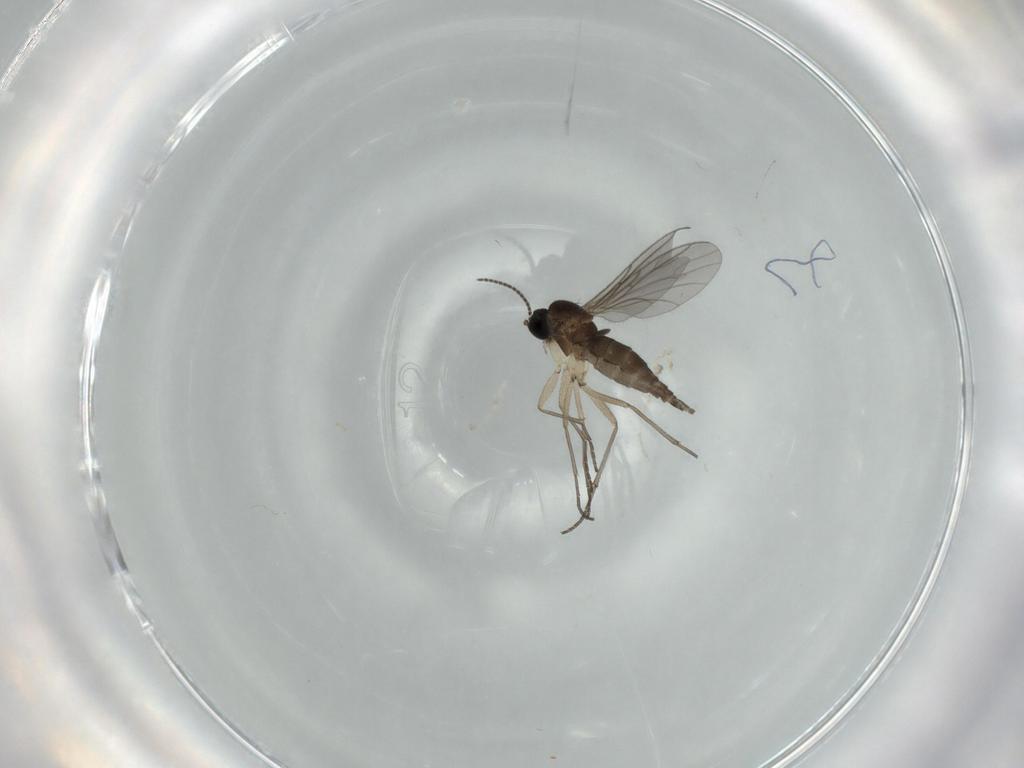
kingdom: Animalia
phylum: Arthropoda
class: Insecta
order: Diptera
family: Sciaridae
